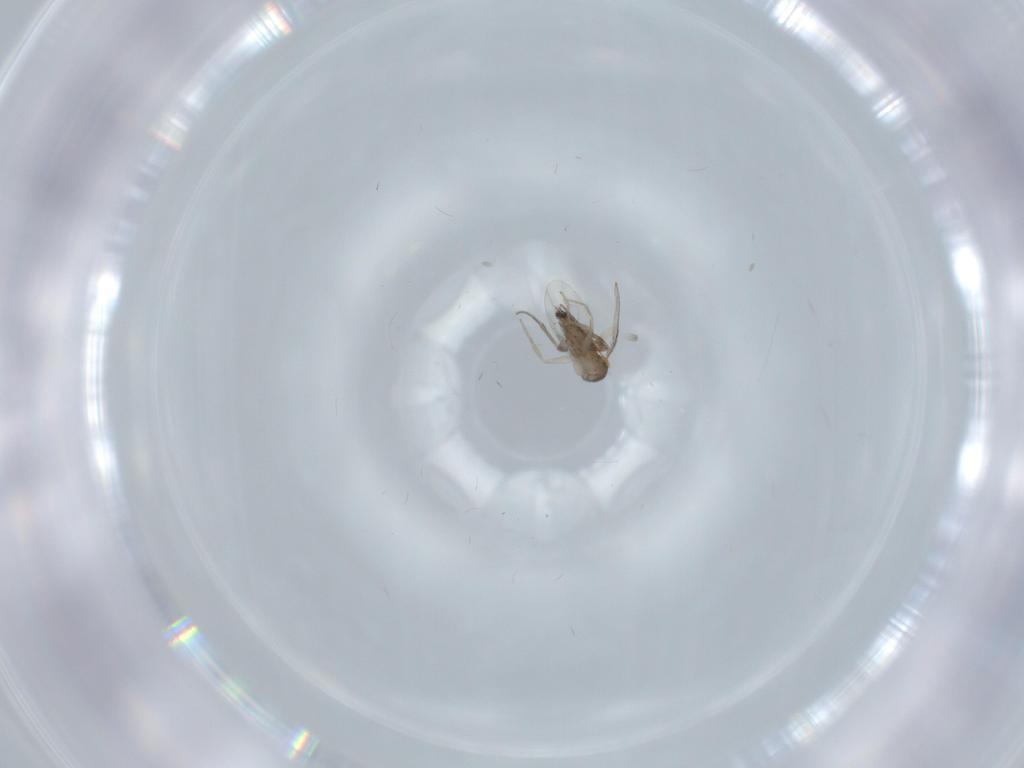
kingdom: Animalia
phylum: Arthropoda
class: Insecta
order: Diptera
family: Phoridae
